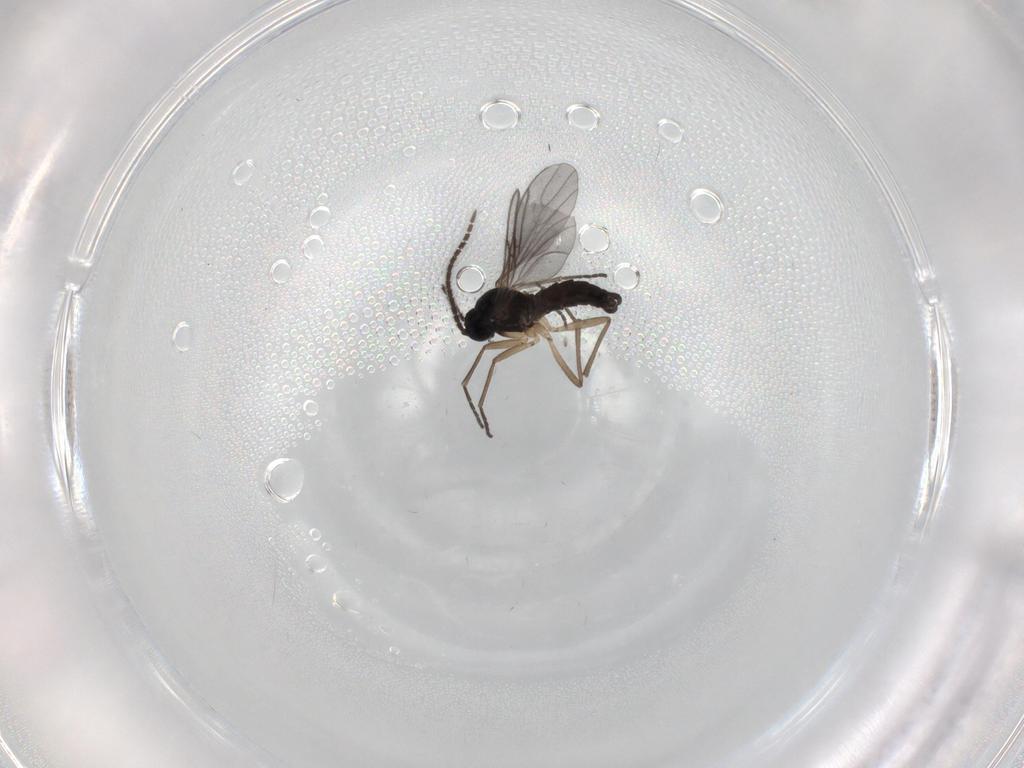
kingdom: Animalia
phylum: Arthropoda
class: Insecta
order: Diptera
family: Sciaridae
